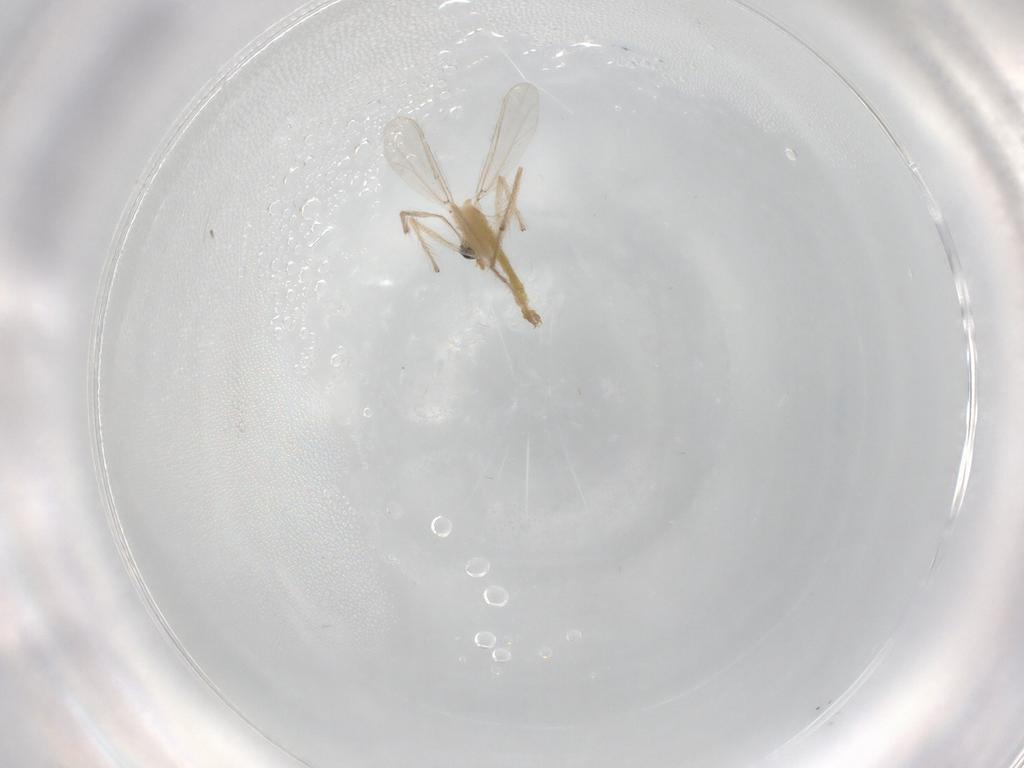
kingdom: Animalia
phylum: Arthropoda
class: Insecta
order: Diptera
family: Chironomidae
